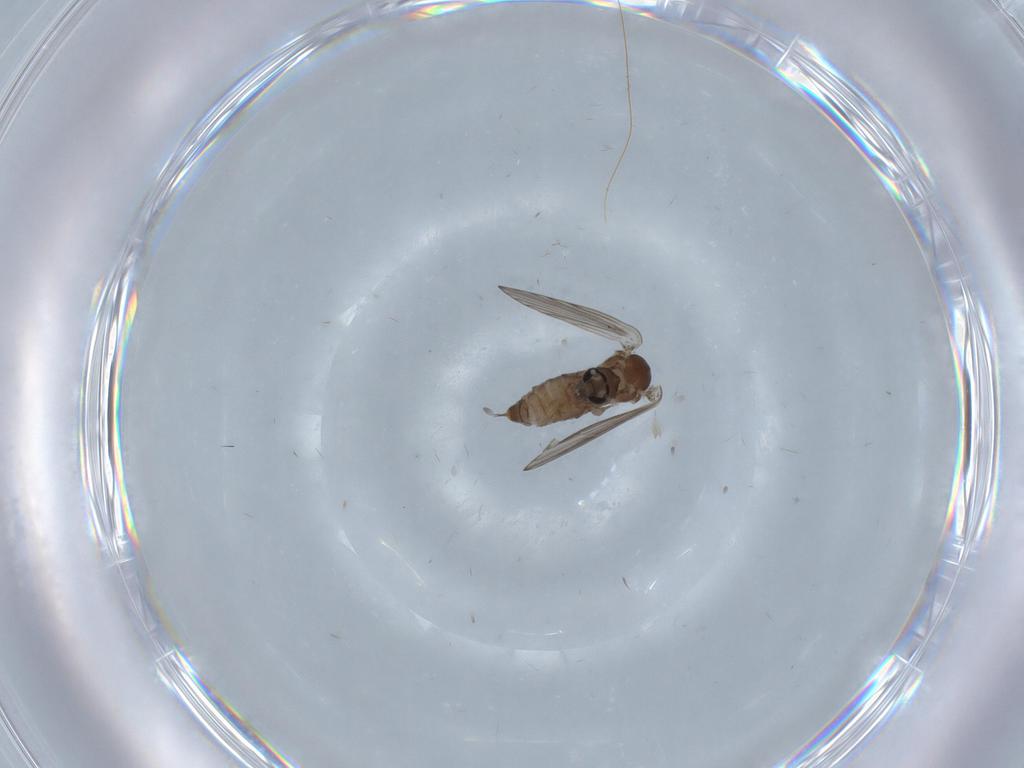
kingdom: Animalia
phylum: Arthropoda
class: Insecta
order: Diptera
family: Psychodidae
